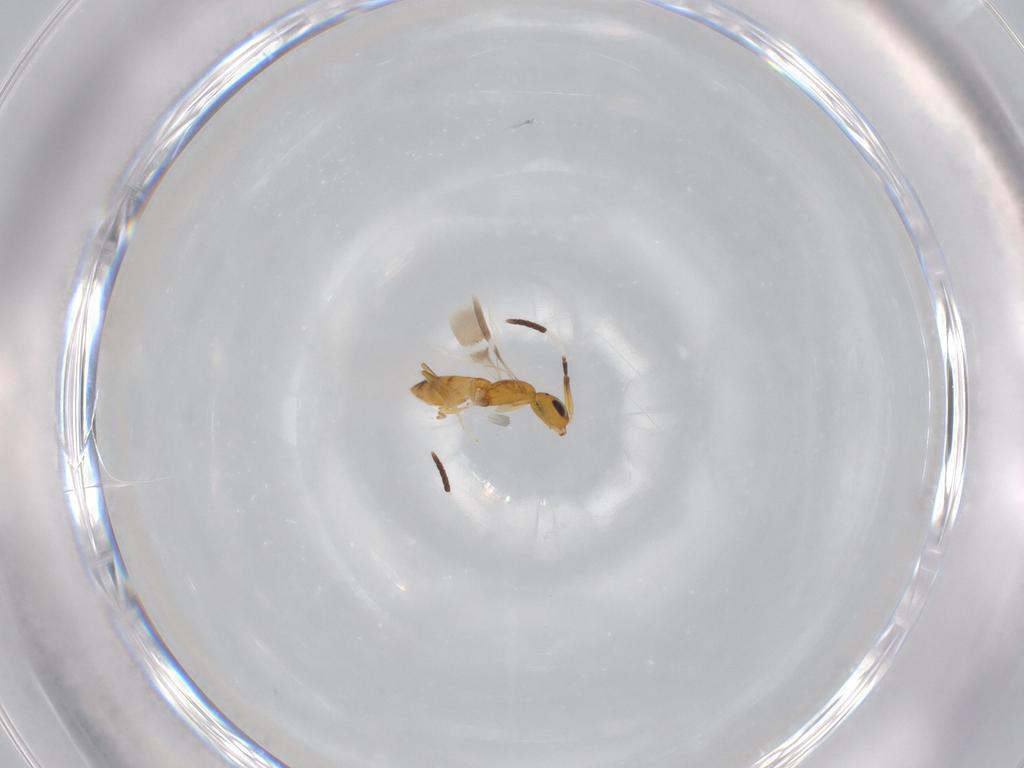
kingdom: Animalia
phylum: Arthropoda
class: Insecta
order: Hymenoptera
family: Scelionidae
